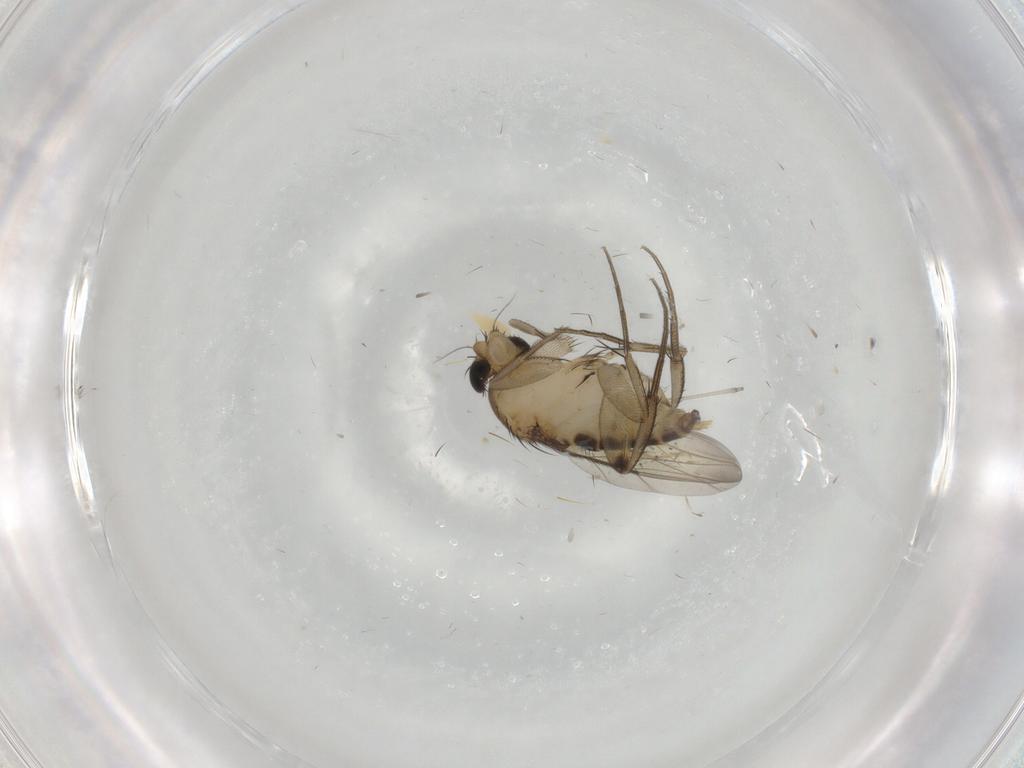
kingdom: Animalia
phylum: Arthropoda
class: Insecta
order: Diptera
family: Phoridae
